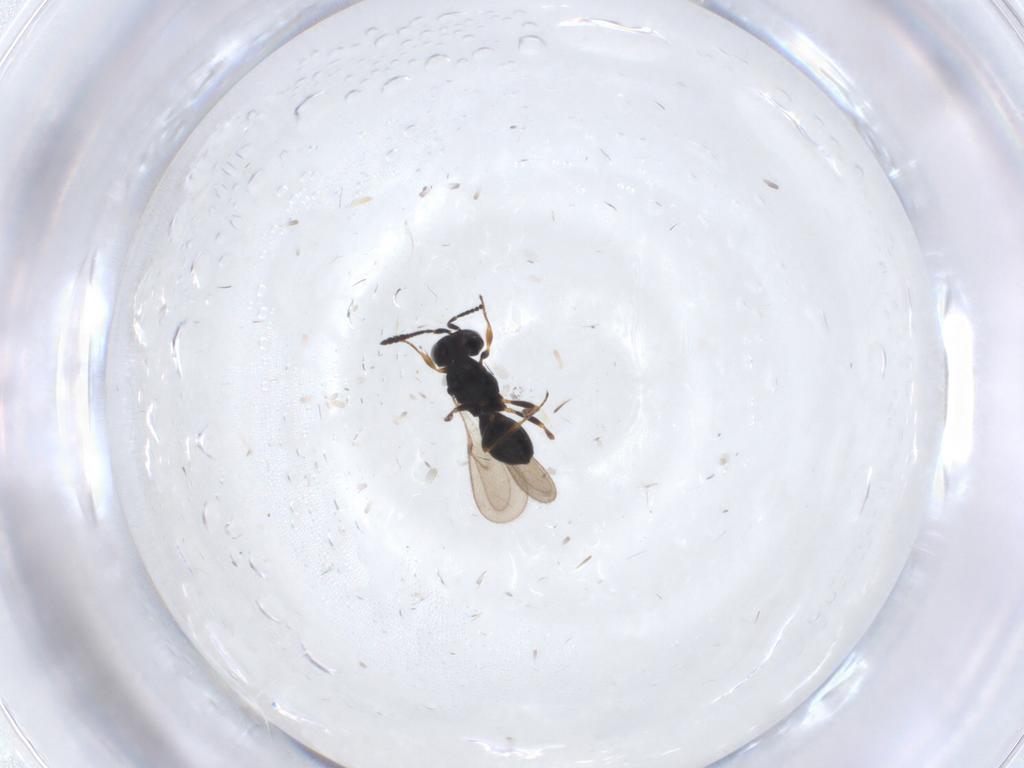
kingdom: Animalia
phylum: Arthropoda
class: Insecta
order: Hymenoptera
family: Scelionidae
